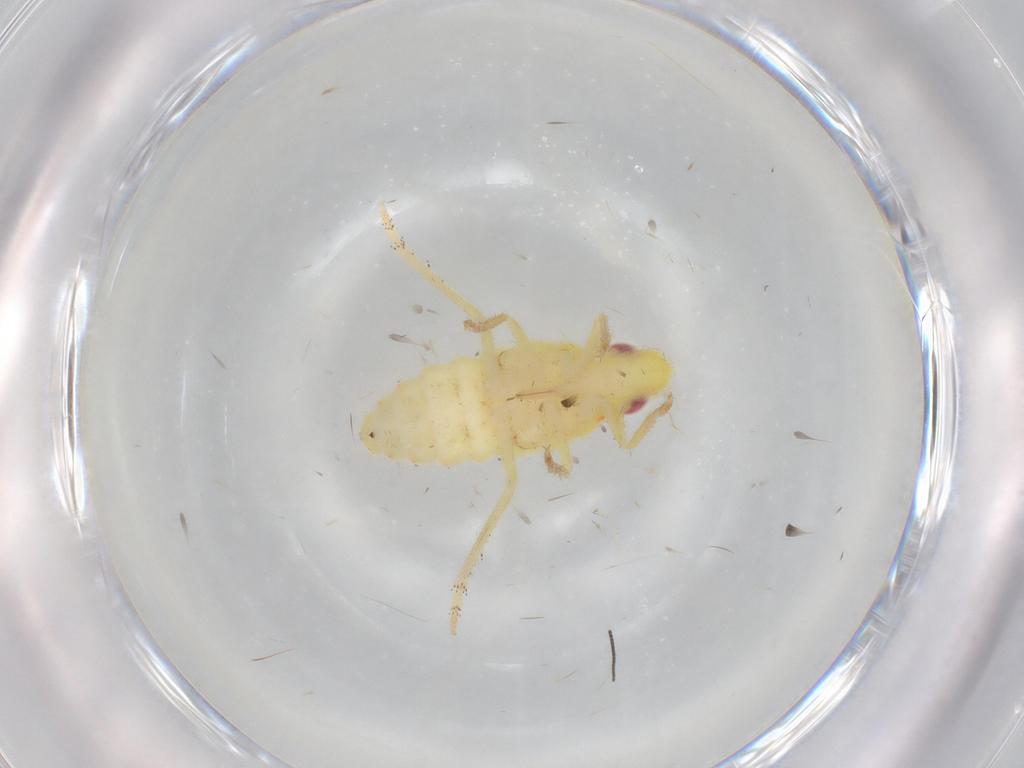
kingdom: Animalia
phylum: Arthropoda
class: Insecta
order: Hemiptera
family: Tropiduchidae
